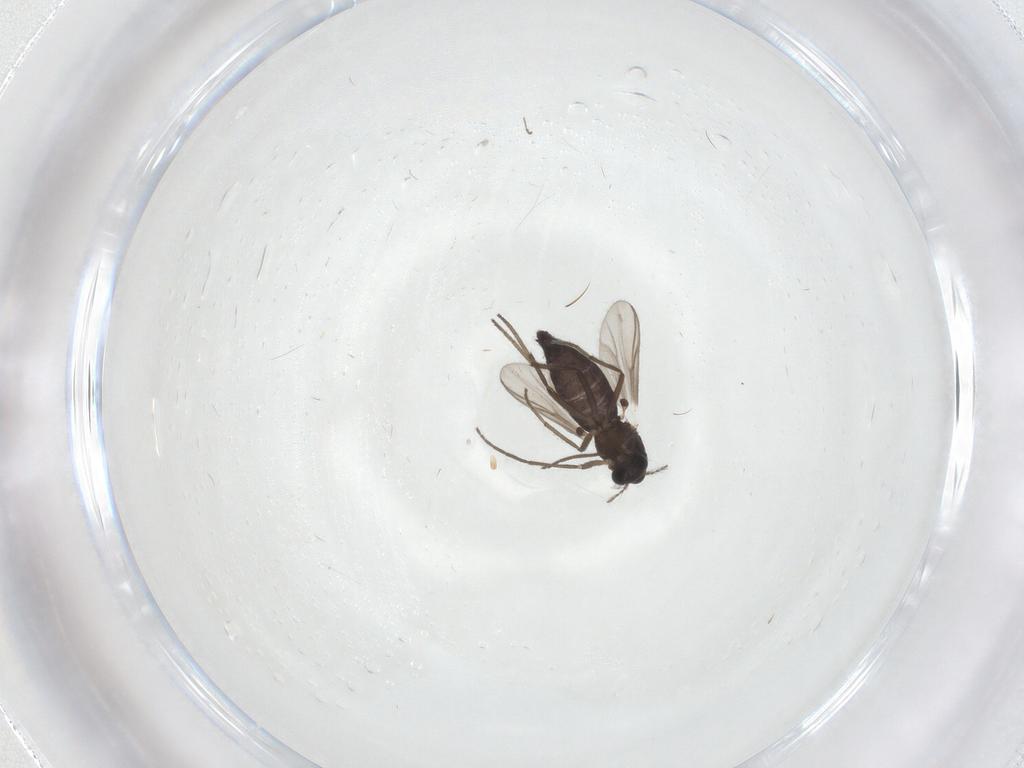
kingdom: Animalia
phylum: Arthropoda
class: Insecta
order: Diptera
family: Chironomidae
